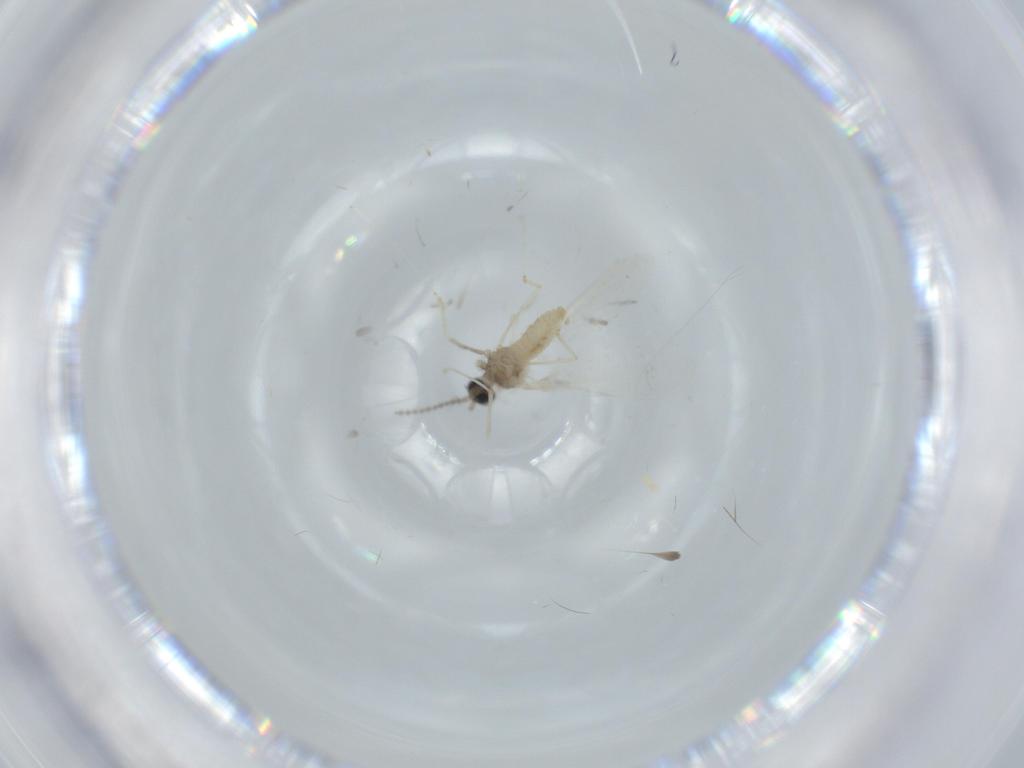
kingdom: Animalia
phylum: Arthropoda
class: Insecta
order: Diptera
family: Cecidomyiidae
